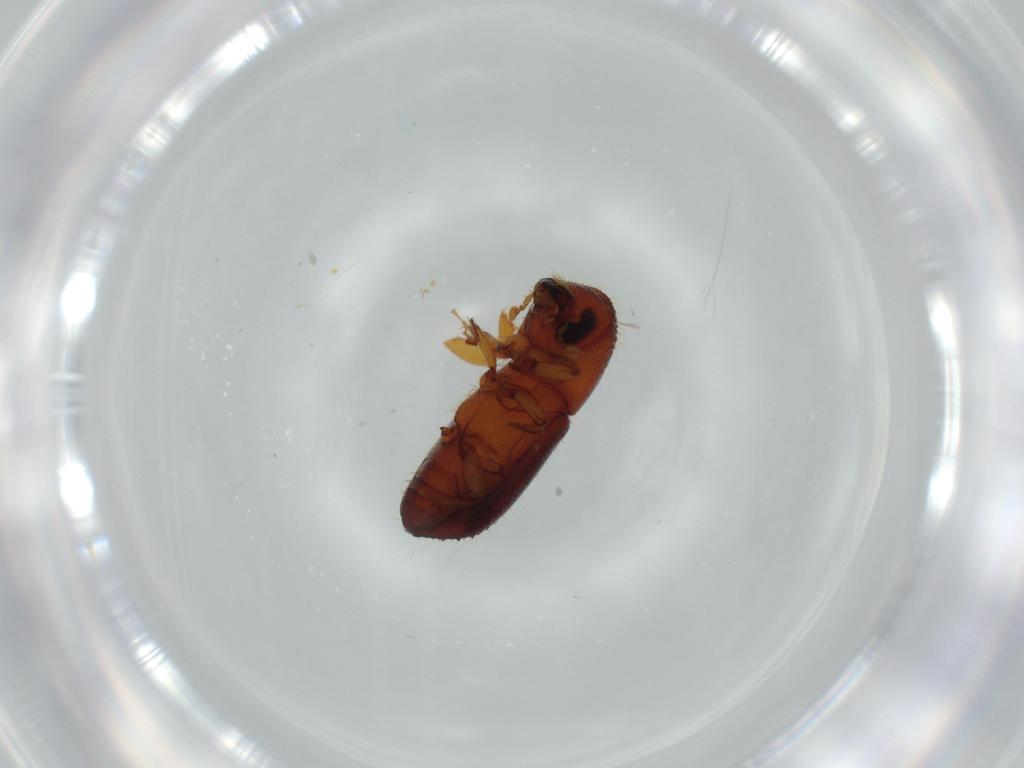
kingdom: Animalia
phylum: Arthropoda
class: Insecta
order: Coleoptera
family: Curculionidae
